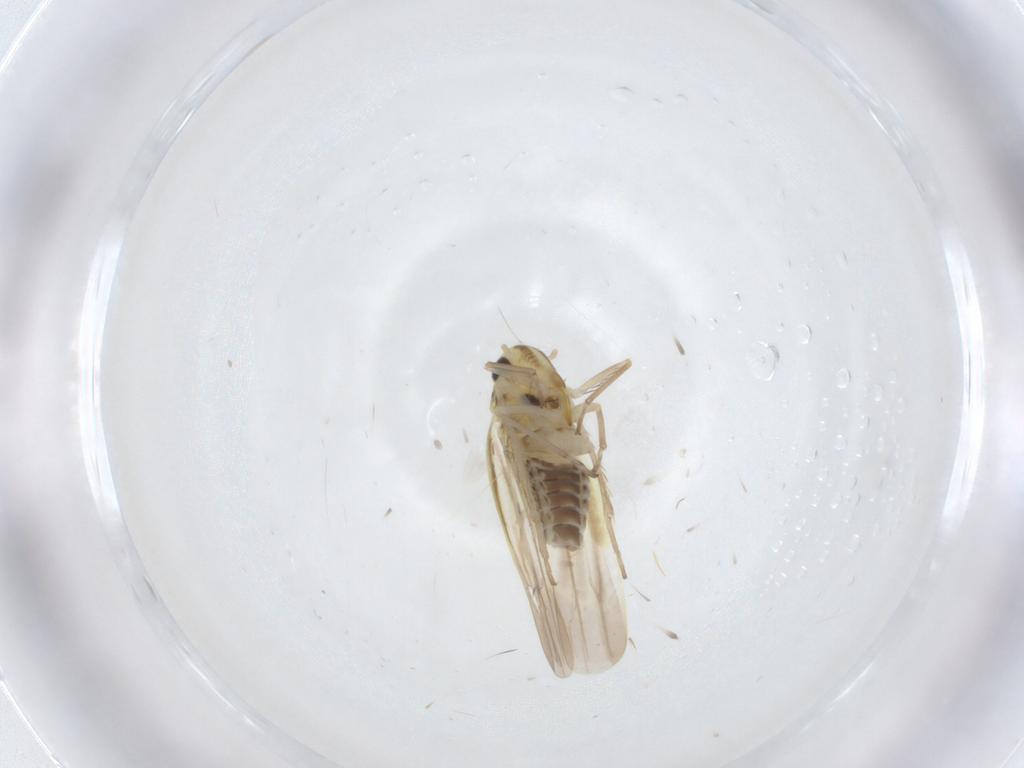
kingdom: Animalia
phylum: Arthropoda
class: Insecta
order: Hemiptera
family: Cicadellidae
